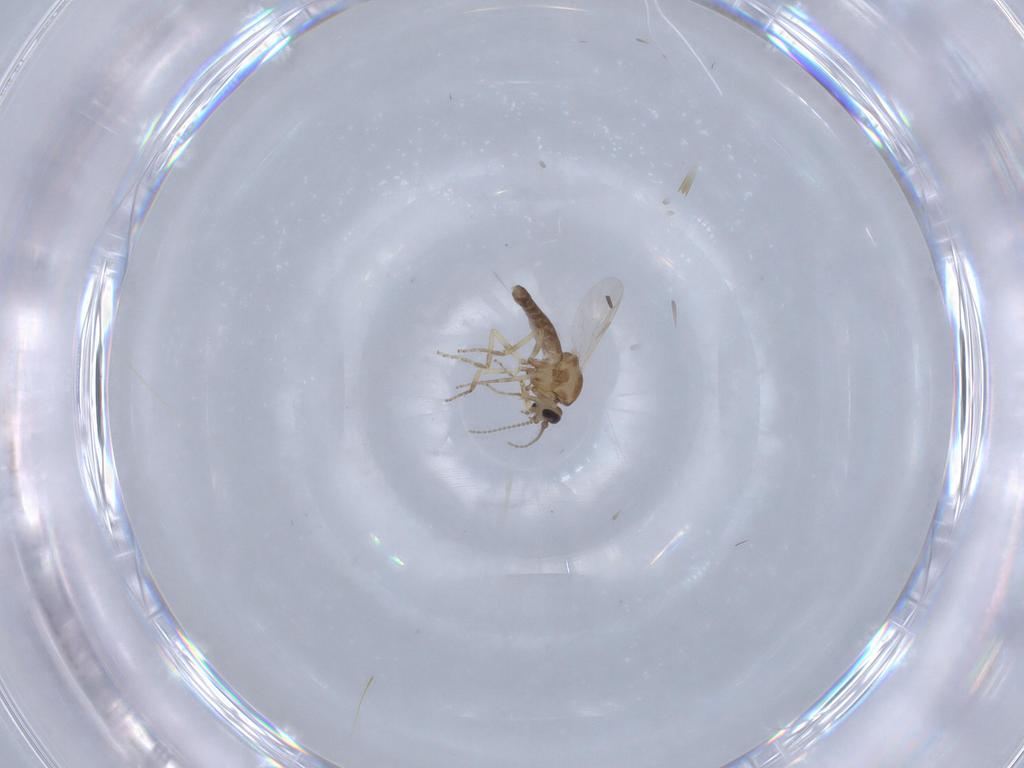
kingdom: Animalia
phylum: Arthropoda
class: Insecta
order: Diptera
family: Ceratopogonidae
